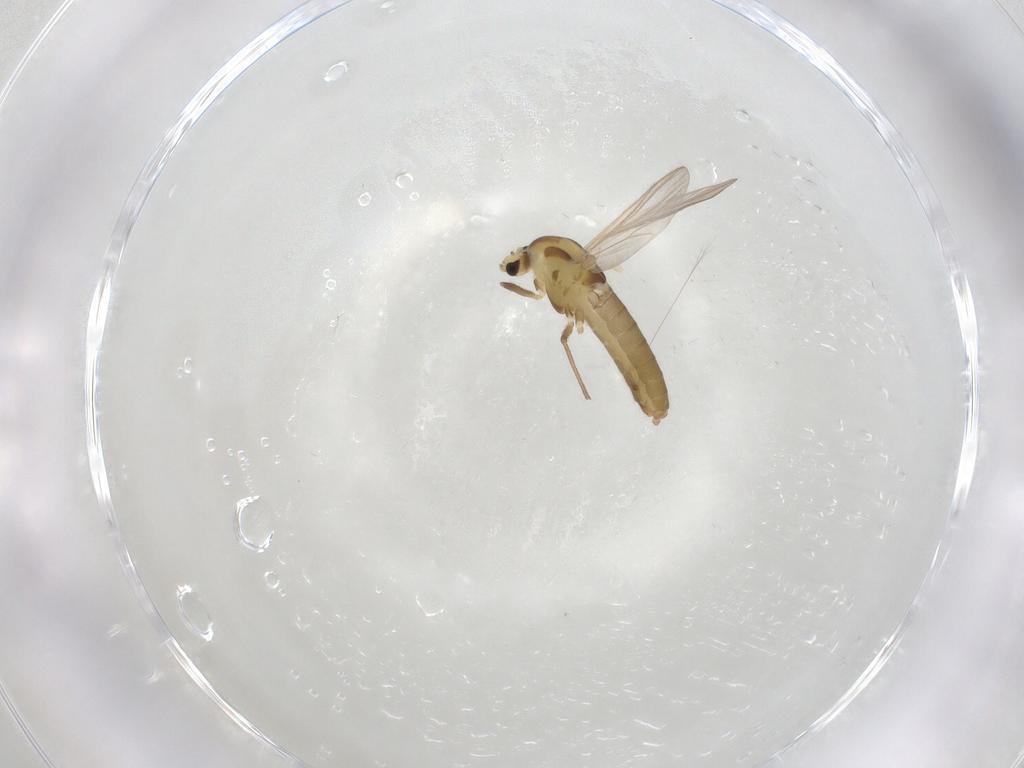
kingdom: Animalia
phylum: Arthropoda
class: Insecta
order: Diptera
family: Chironomidae
